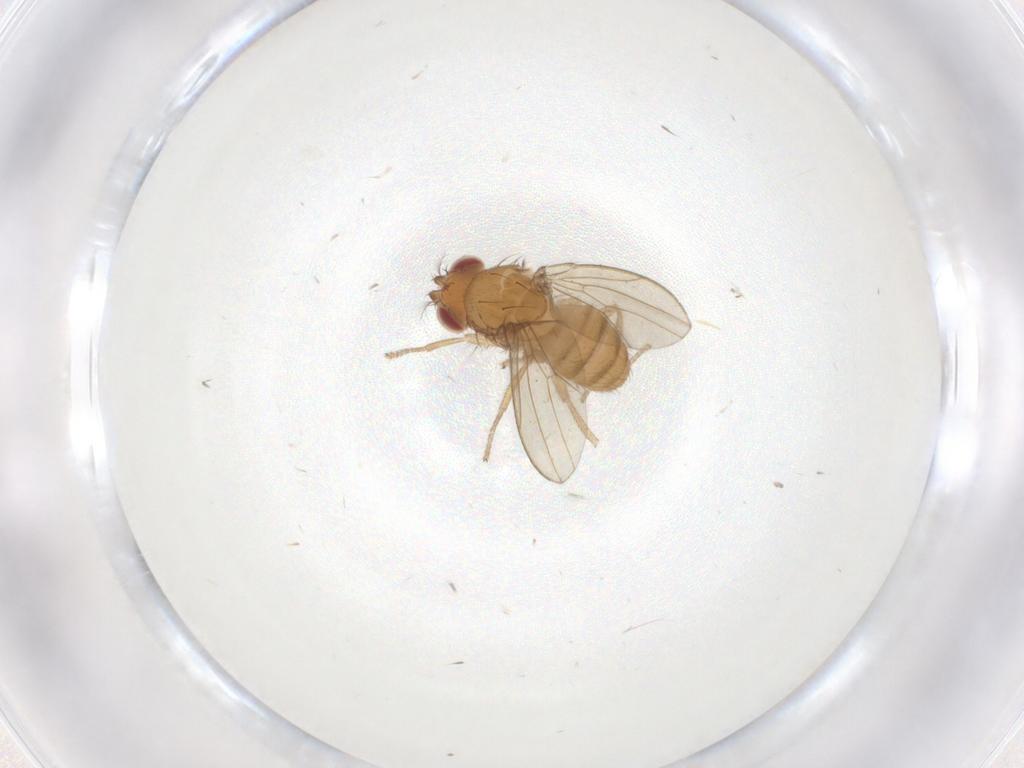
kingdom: Animalia
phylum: Arthropoda
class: Insecta
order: Diptera
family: Drosophilidae
